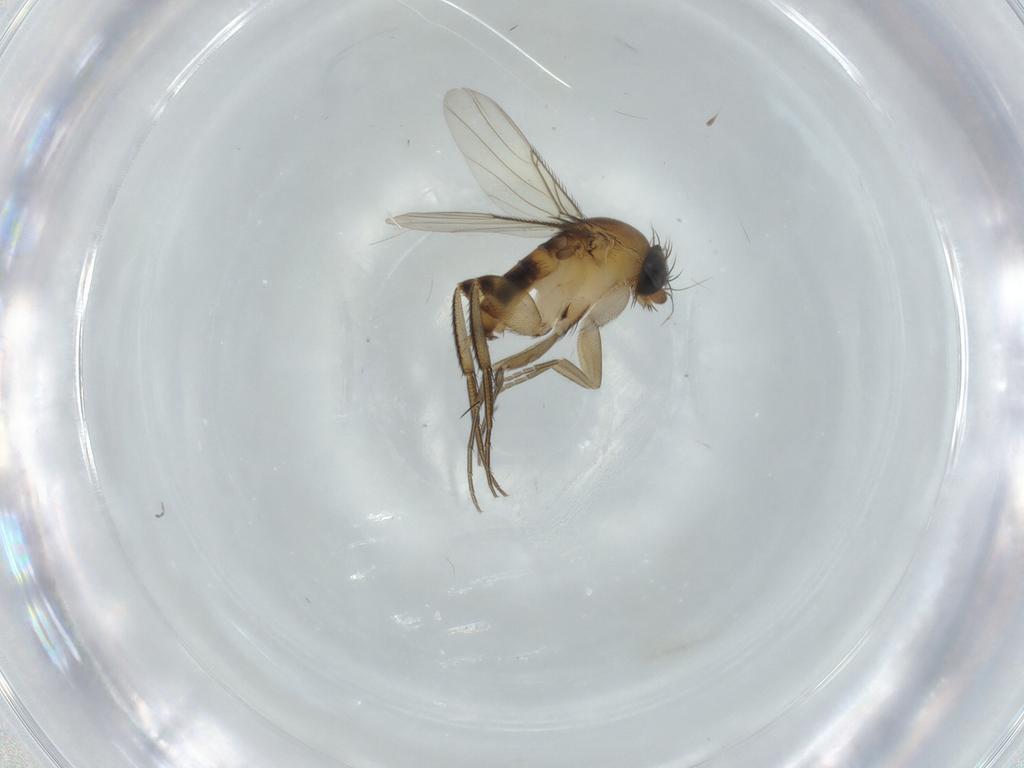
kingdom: Animalia
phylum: Arthropoda
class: Insecta
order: Diptera
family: Phoridae
